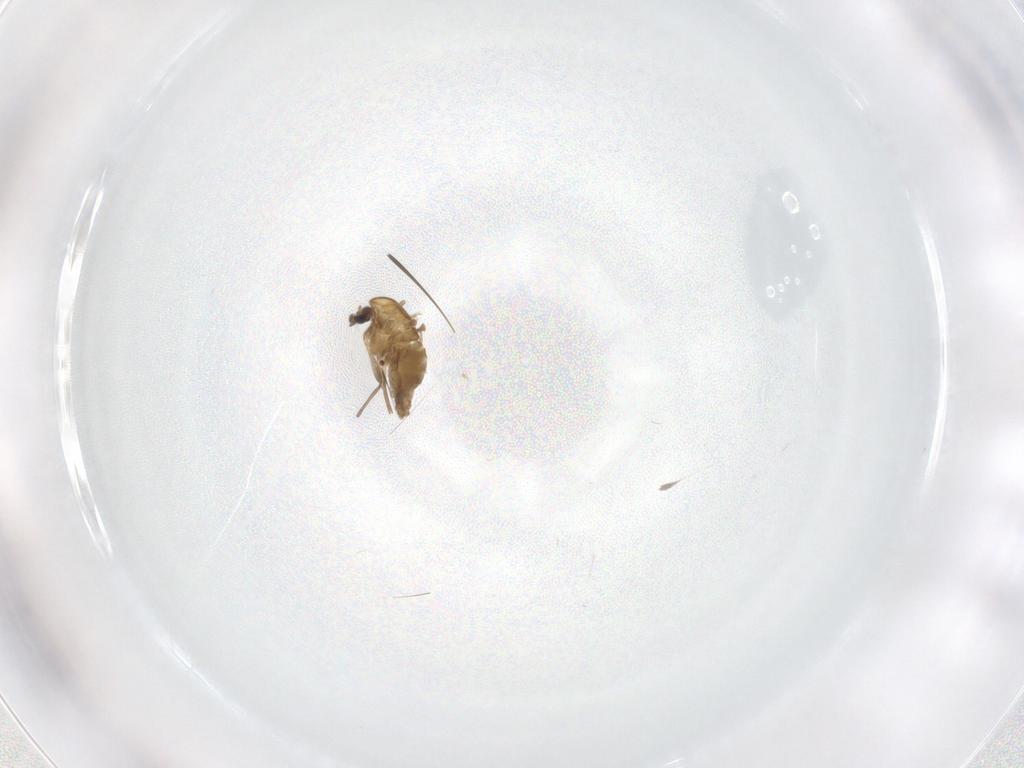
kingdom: Animalia
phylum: Arthropoda
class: Insecta
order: Diptera
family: Chironomidae
